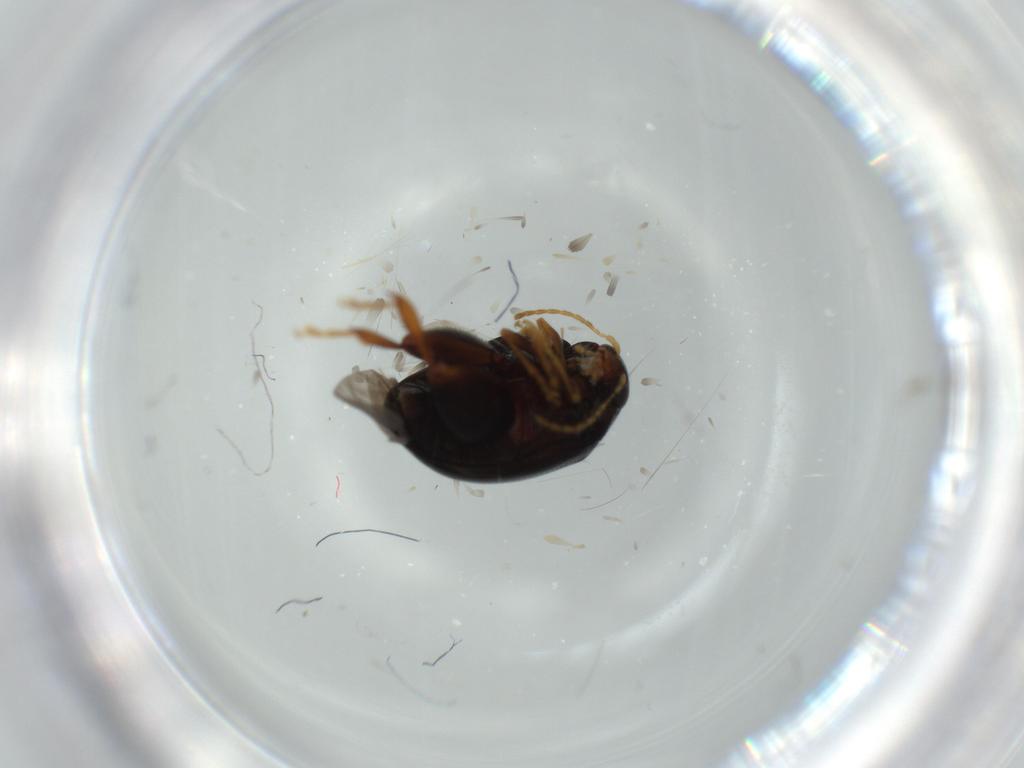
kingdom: Animalia
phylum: Arthropoda
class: Insecta
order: Coleoptera
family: Chrysomelidae
